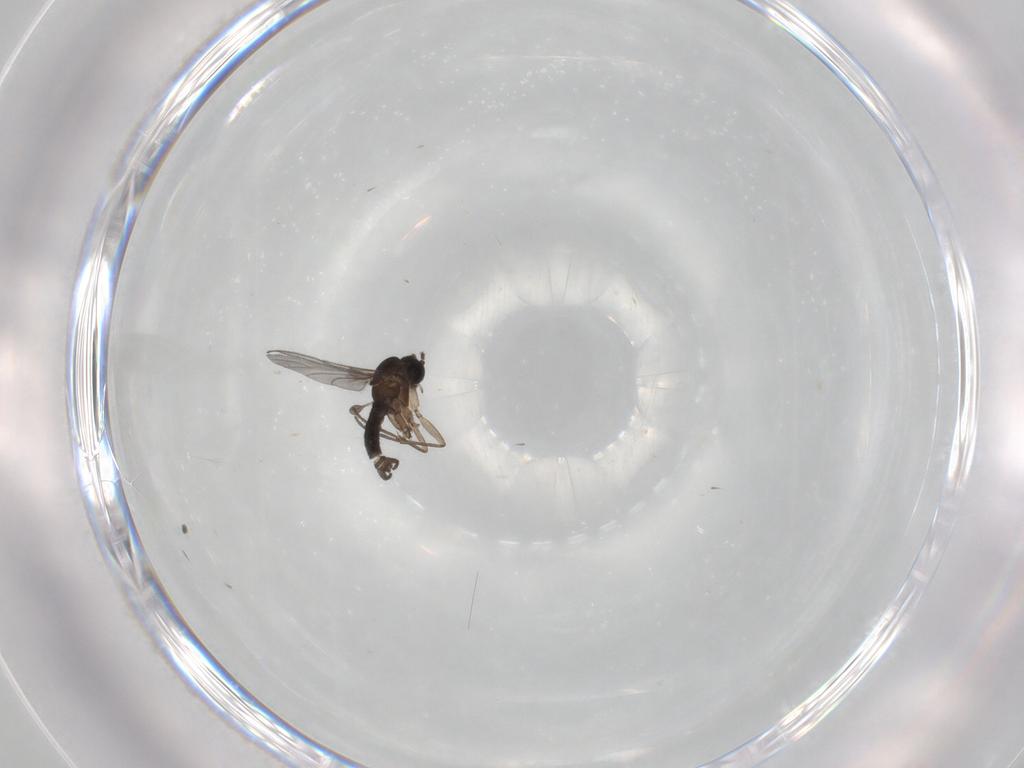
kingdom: Animalia
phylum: Arthropoda
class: Insecta
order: Diptera
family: Sciaridae
